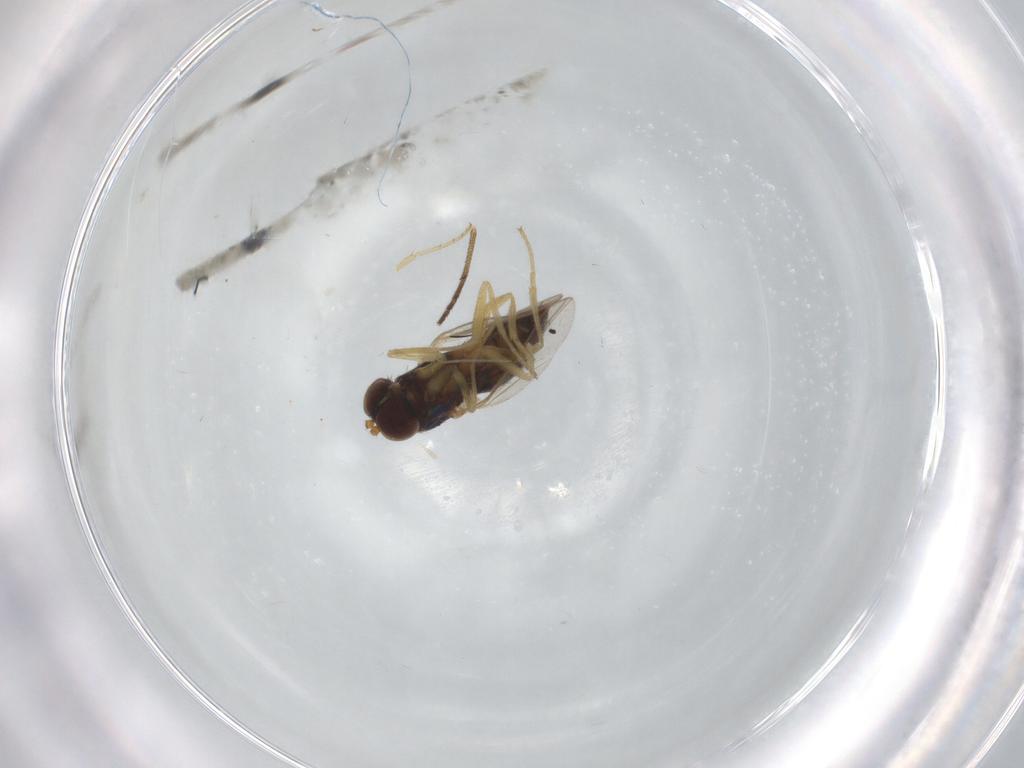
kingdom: Animalia
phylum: Arthropoda
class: Insecta
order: Diptera
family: Dolichopodidae
